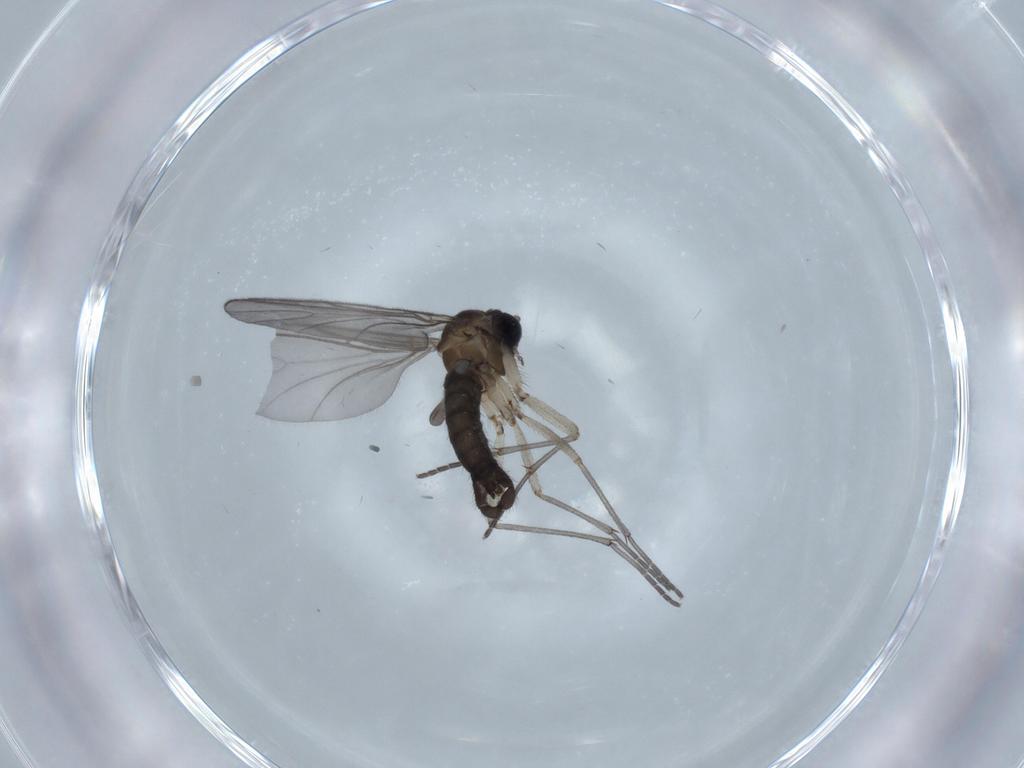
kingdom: Animalia
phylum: Arthropoda
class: Insecta
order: Diptera
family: Sciaridae
